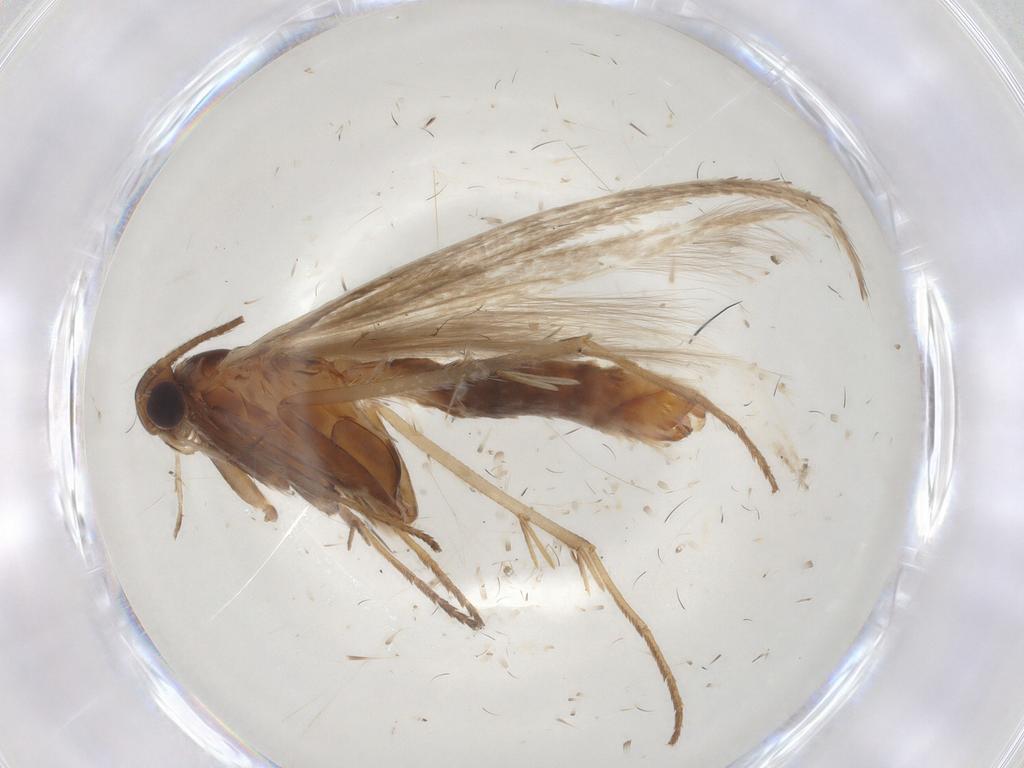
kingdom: Animalia
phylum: Arthropoda
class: Insecta
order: Lepidoptera
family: Coleophoridae
